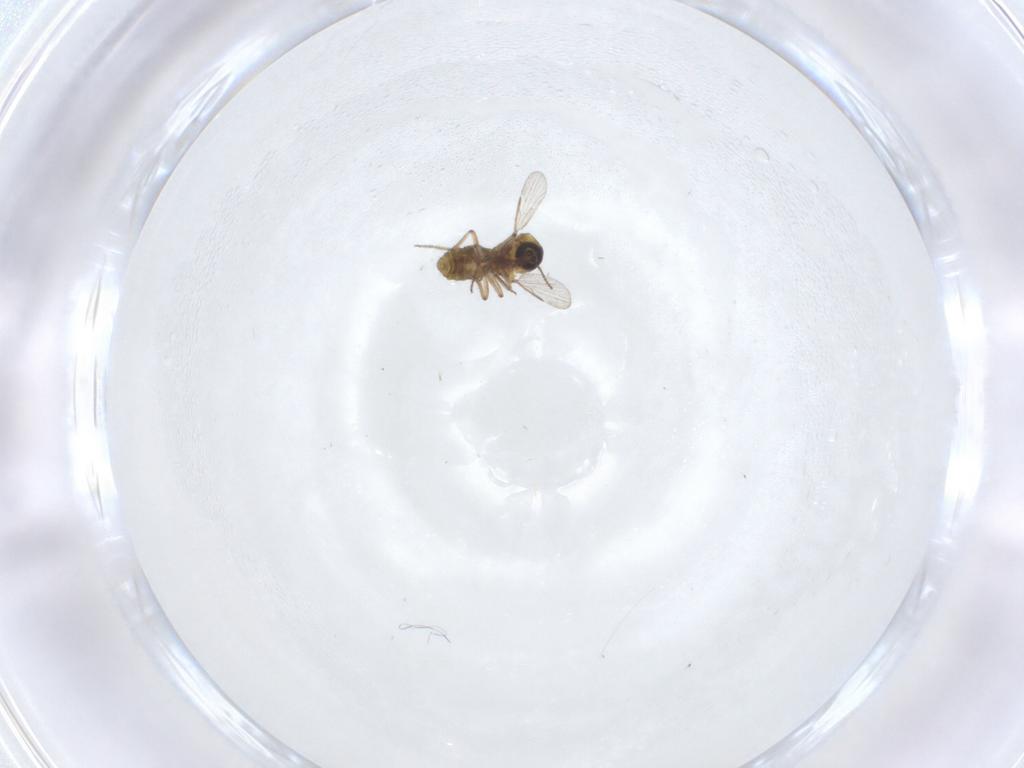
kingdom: Animalia
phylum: Arthropoda
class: Insecta
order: Diptera
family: Ceratopogonidae
